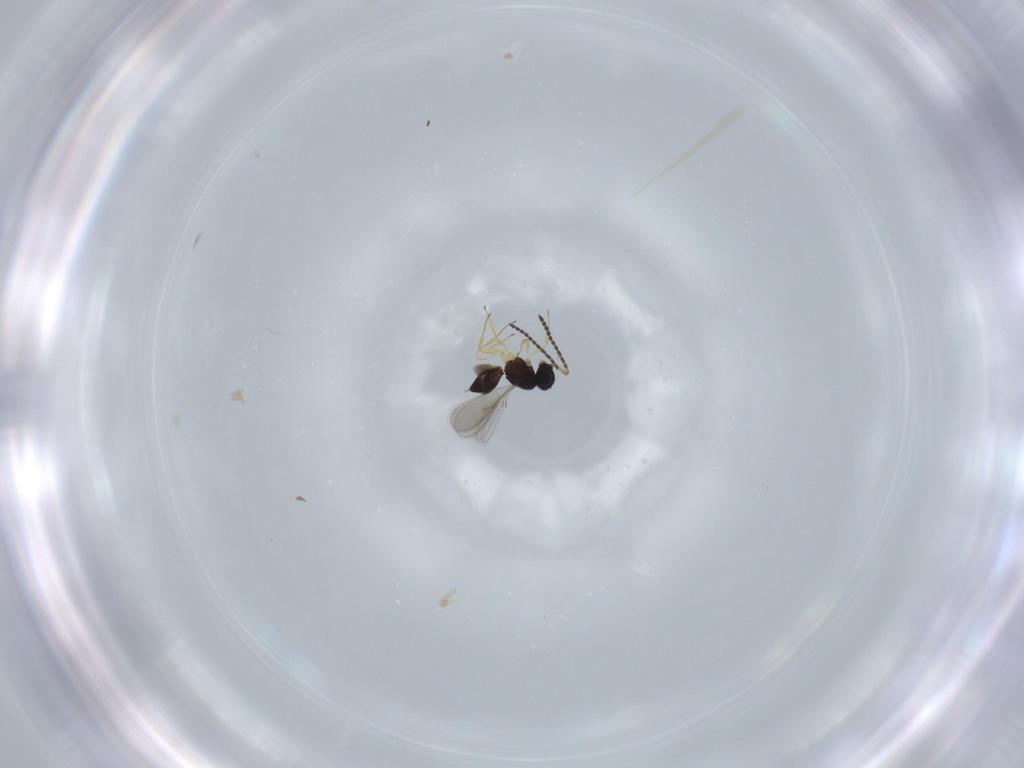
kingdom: Animalia
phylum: Arthropoda
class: Insecta
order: Hymenoptera
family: Scelionidae
